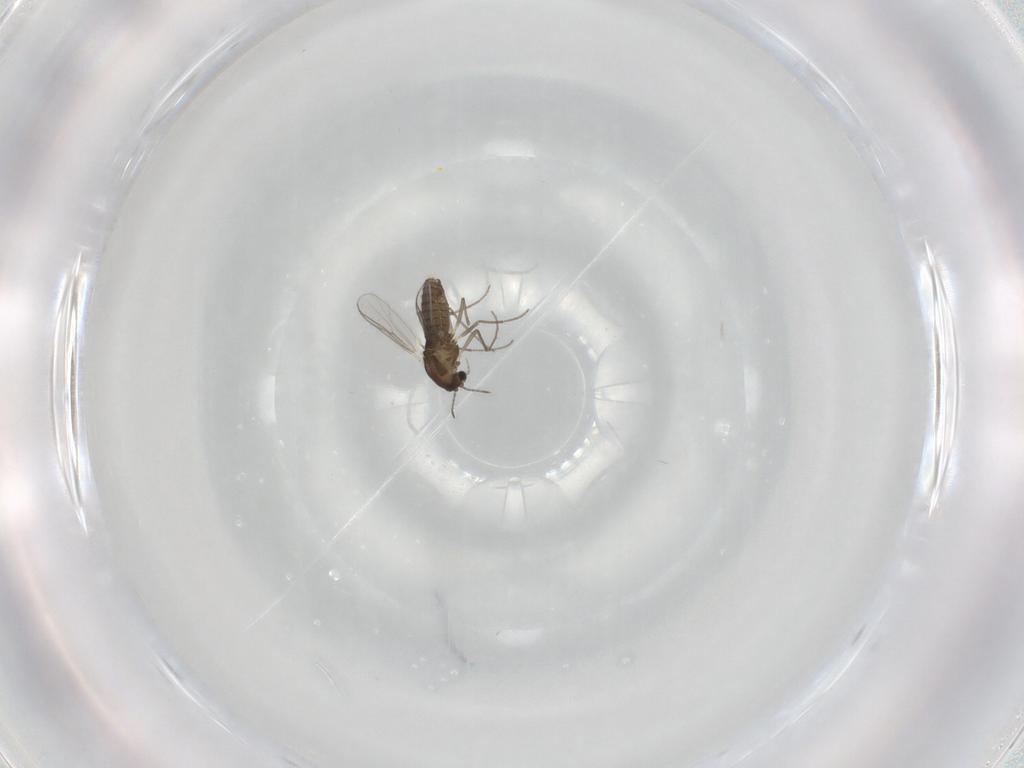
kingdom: Animalia
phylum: Arthropoda
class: Insecta
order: Diptera
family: Chironomidae
